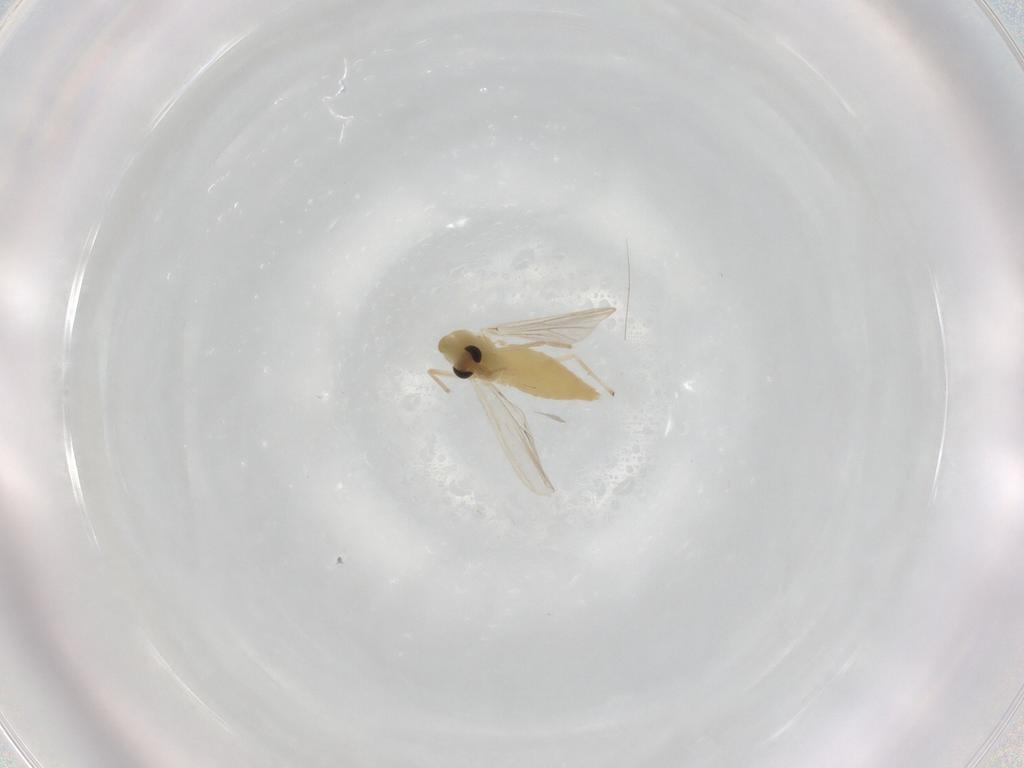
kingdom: Animalia
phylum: Arthropoda
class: Insecta
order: Diptera
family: Chironomidae
